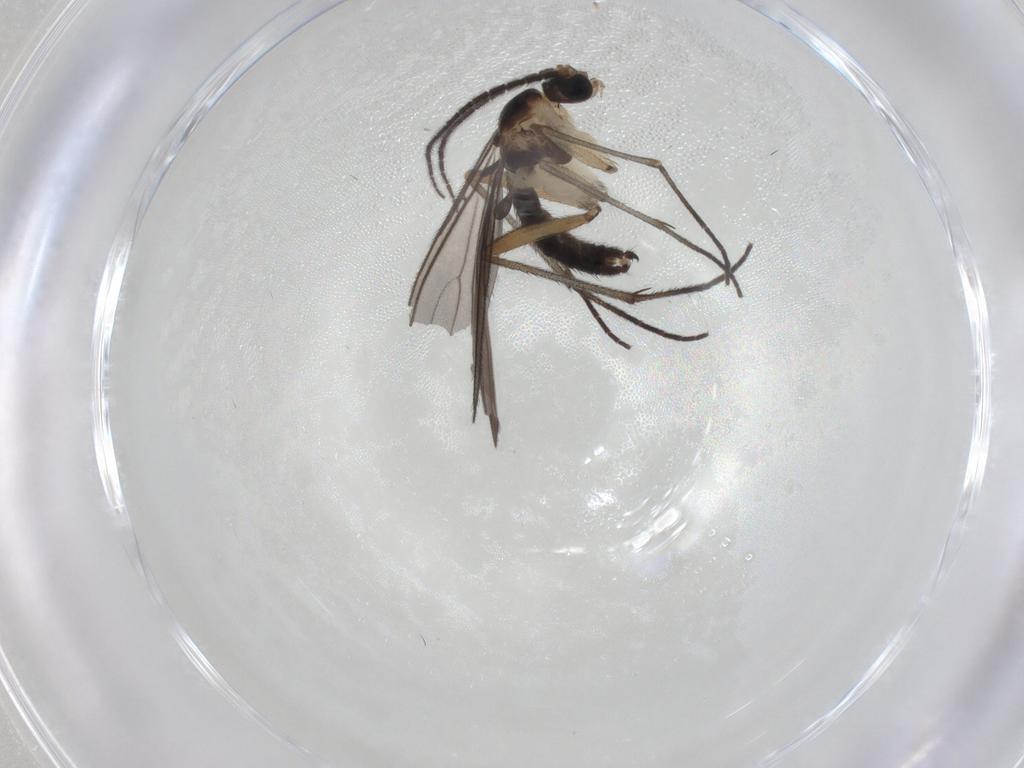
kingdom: Animalia
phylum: Arthropoda
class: Insecta
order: Diptera
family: Sciaridae
